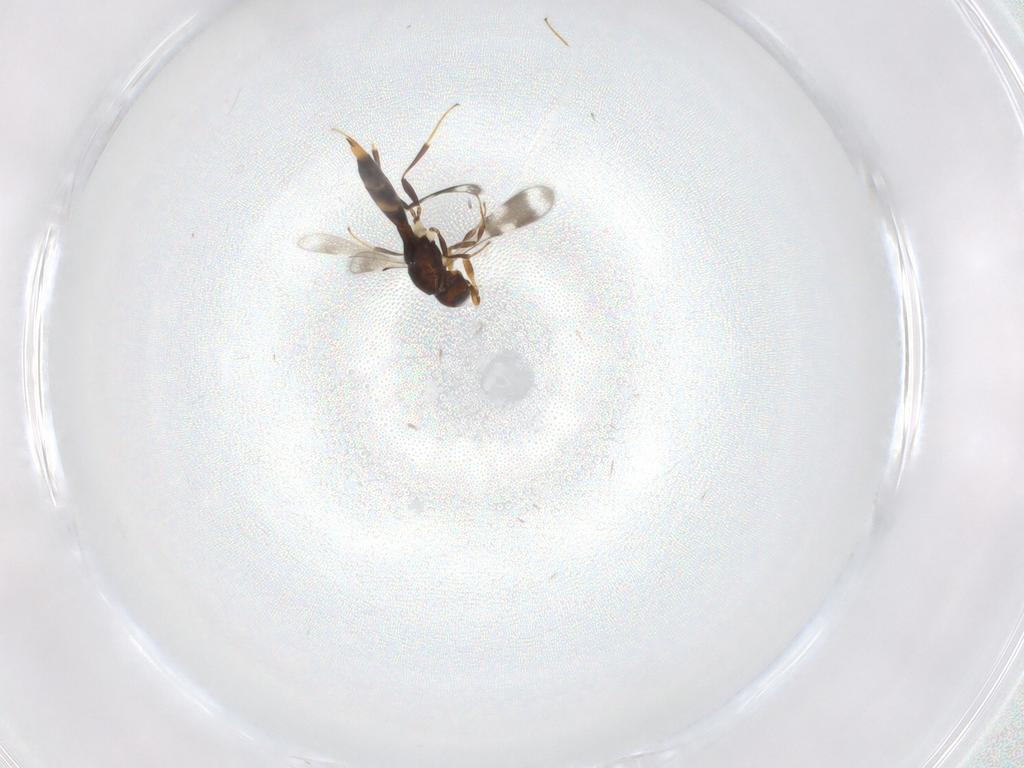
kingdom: Animalia
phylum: Arthropoda
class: Insecta
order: Hymenoptera
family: Scelionidae
